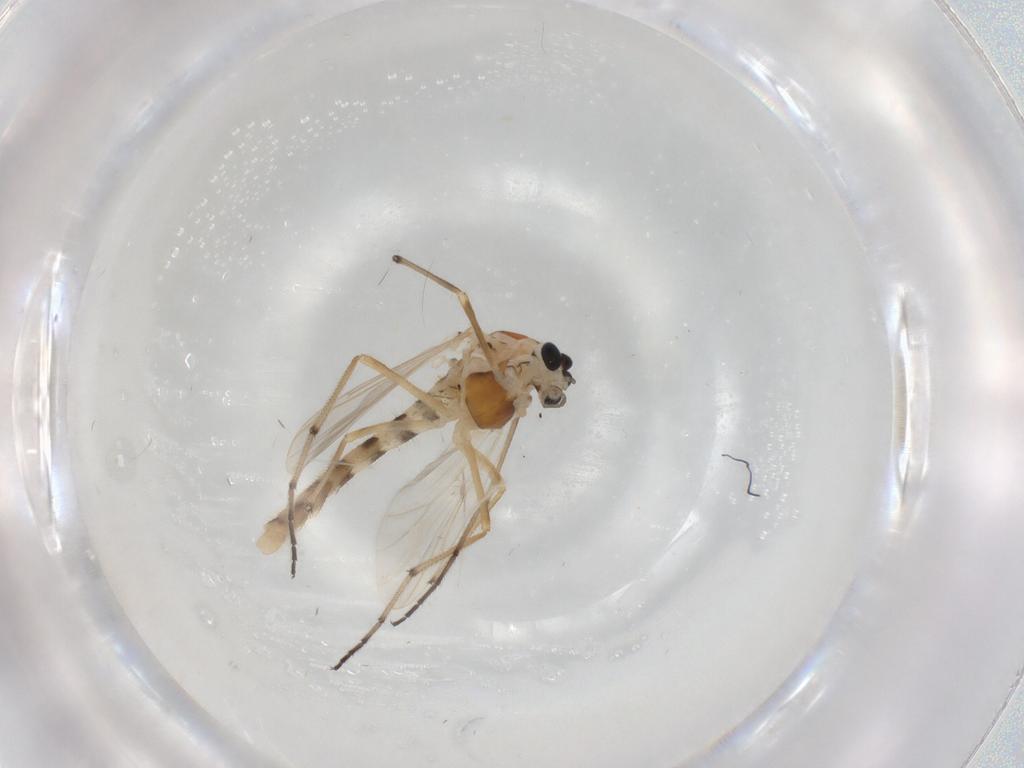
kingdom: Animalia
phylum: Arthropoda
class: Insecta
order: Diptera
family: Chironomidae
